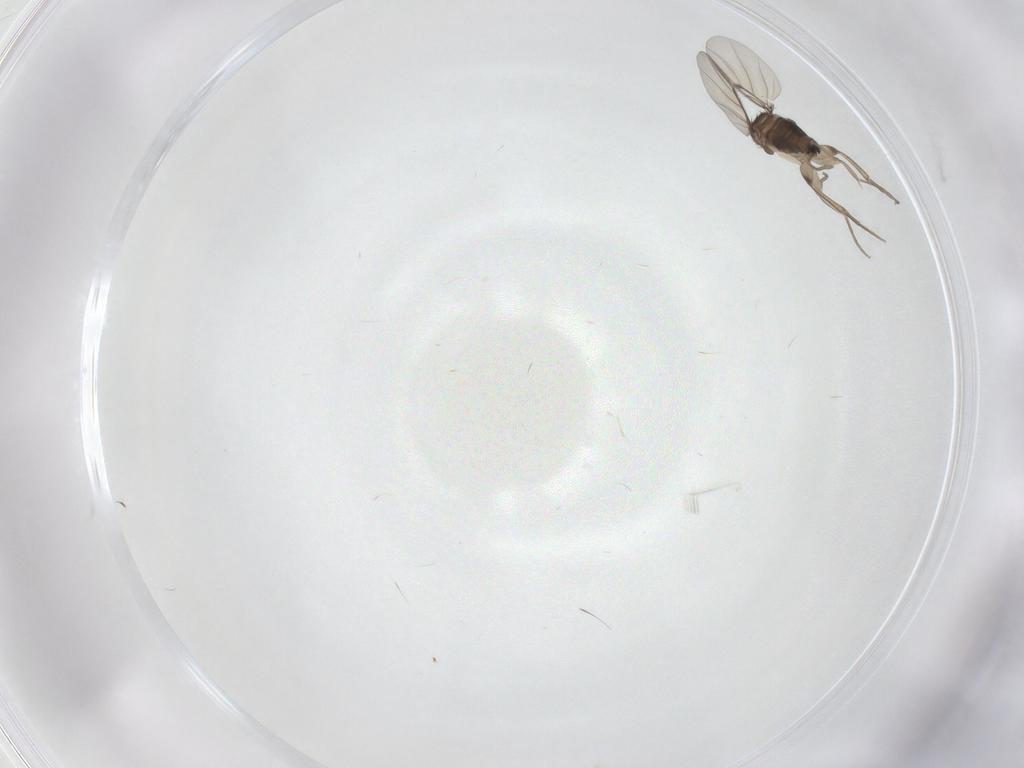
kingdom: Animalia
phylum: Arthropoda
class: Insecta
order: Diptera
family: Phoridae
